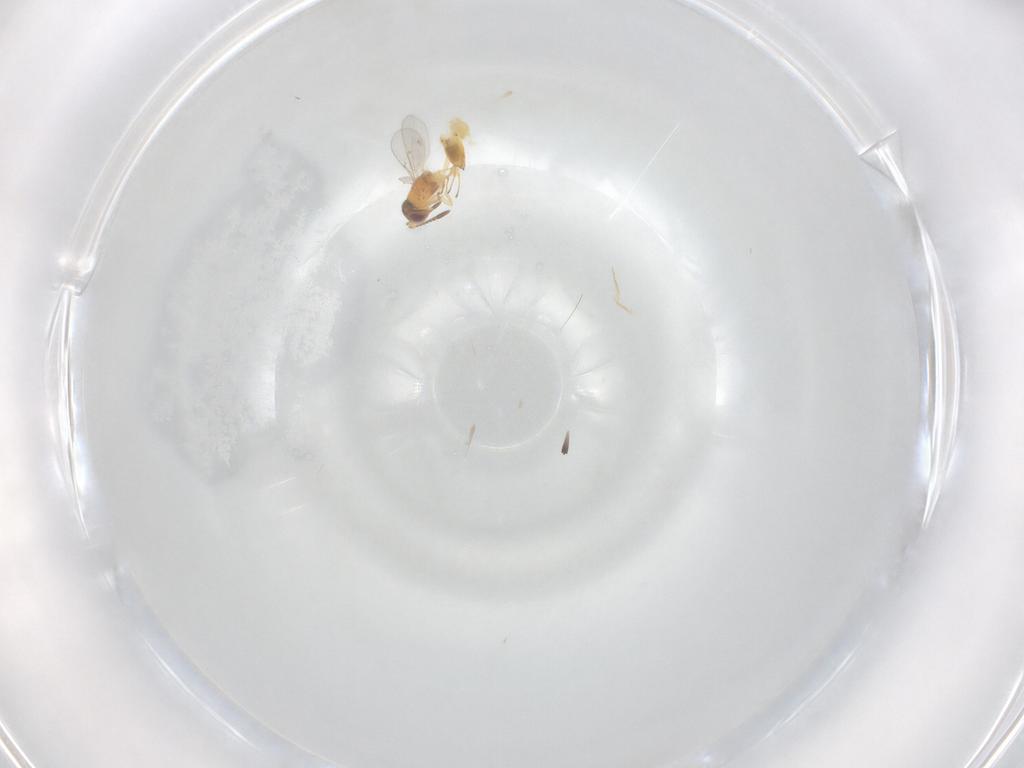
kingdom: Animalia
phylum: Arthropoda
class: Insecta
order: Hymenoptera
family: Encyrtidae
